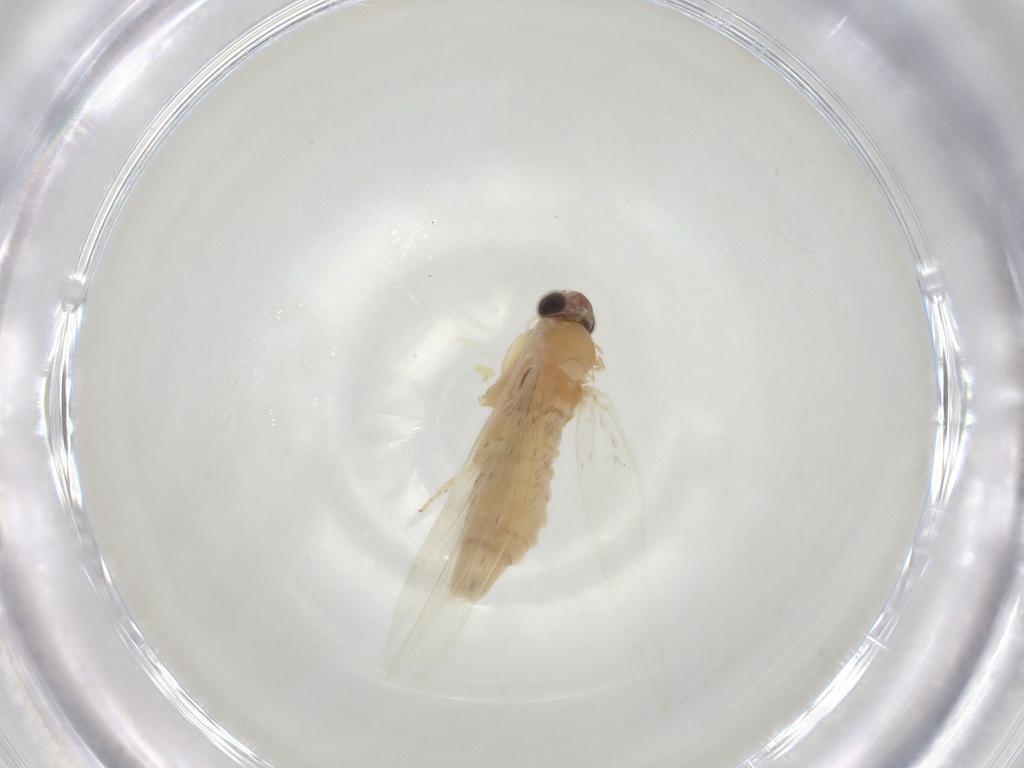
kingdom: Animalia
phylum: Arthropoda
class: Insecta
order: Lepidoptera
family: Tineidae
